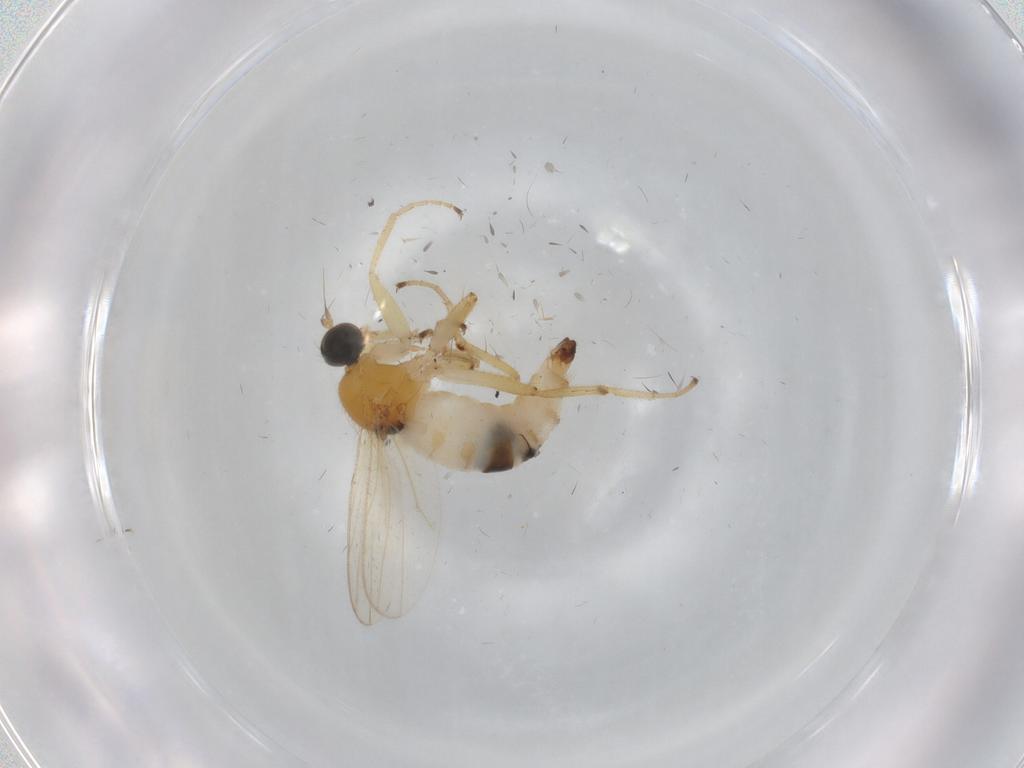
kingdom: Animalia
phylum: Arthropoda
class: Insecta
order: Diptera
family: Hybotidae
